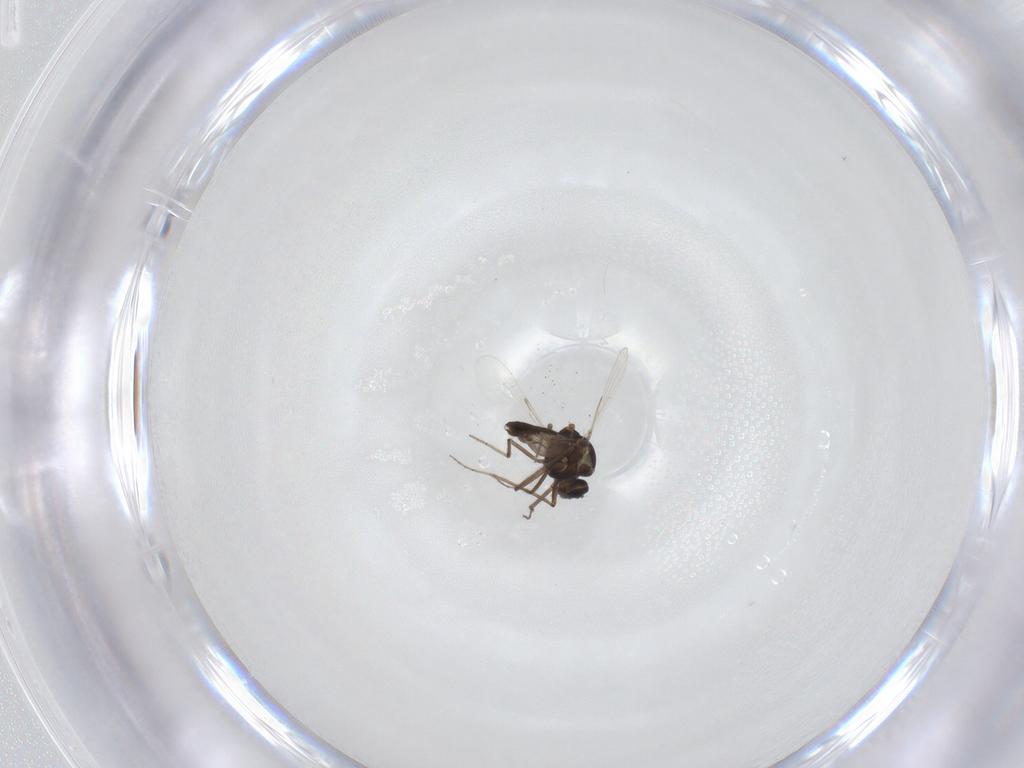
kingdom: Animalia
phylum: Arthropoda
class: Insecta
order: Diptera
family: Ceratopogonidae
